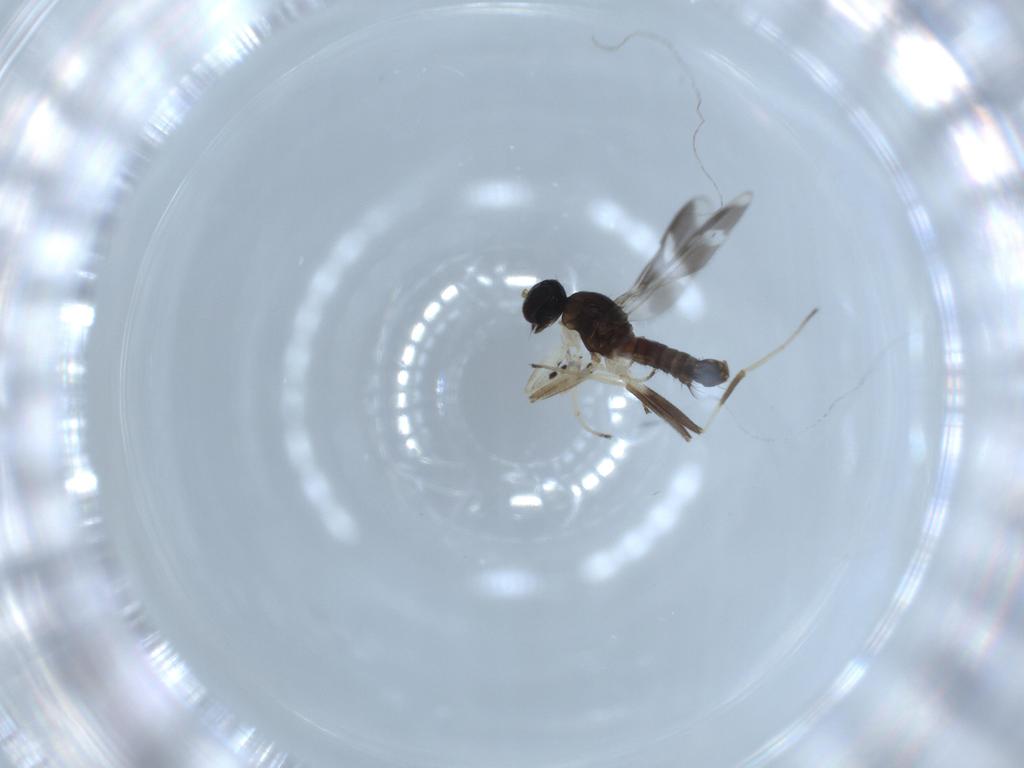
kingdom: Animalia
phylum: Arthropoda
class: Insecta
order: Diptera
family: Hybotidae
